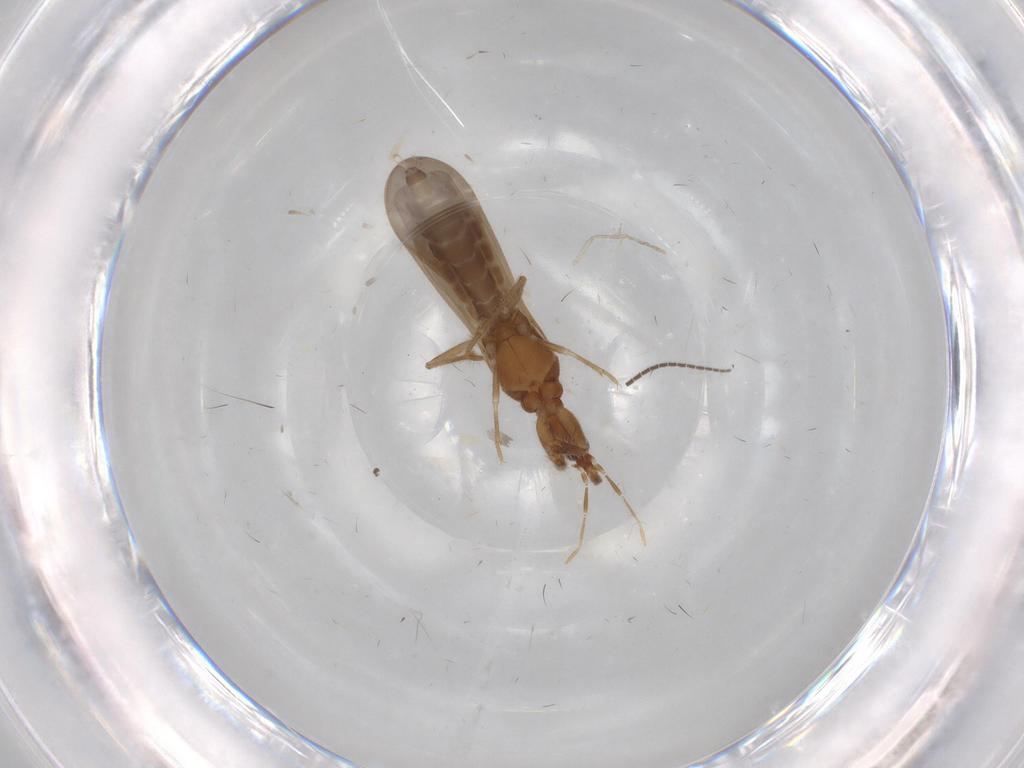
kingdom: Animalia
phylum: Arthropoda
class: Insecta
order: Hemiptera
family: Enicocephalidae
